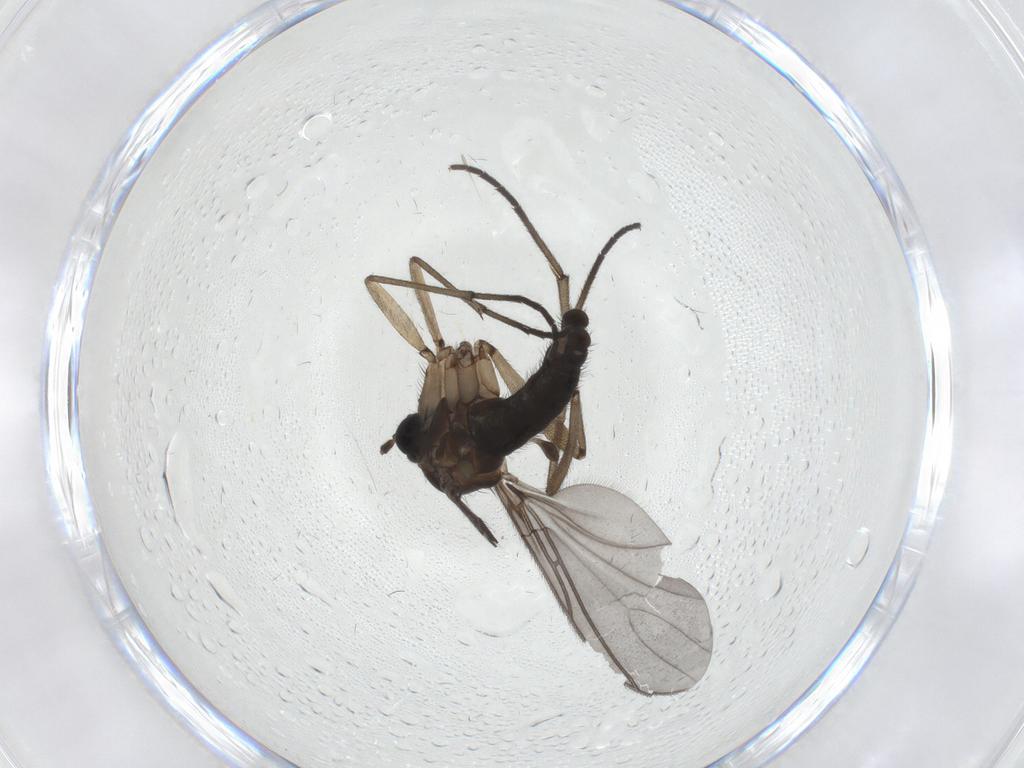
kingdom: Animalia
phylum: Arthropoda
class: Insecta
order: Diptera
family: Sciaridae
